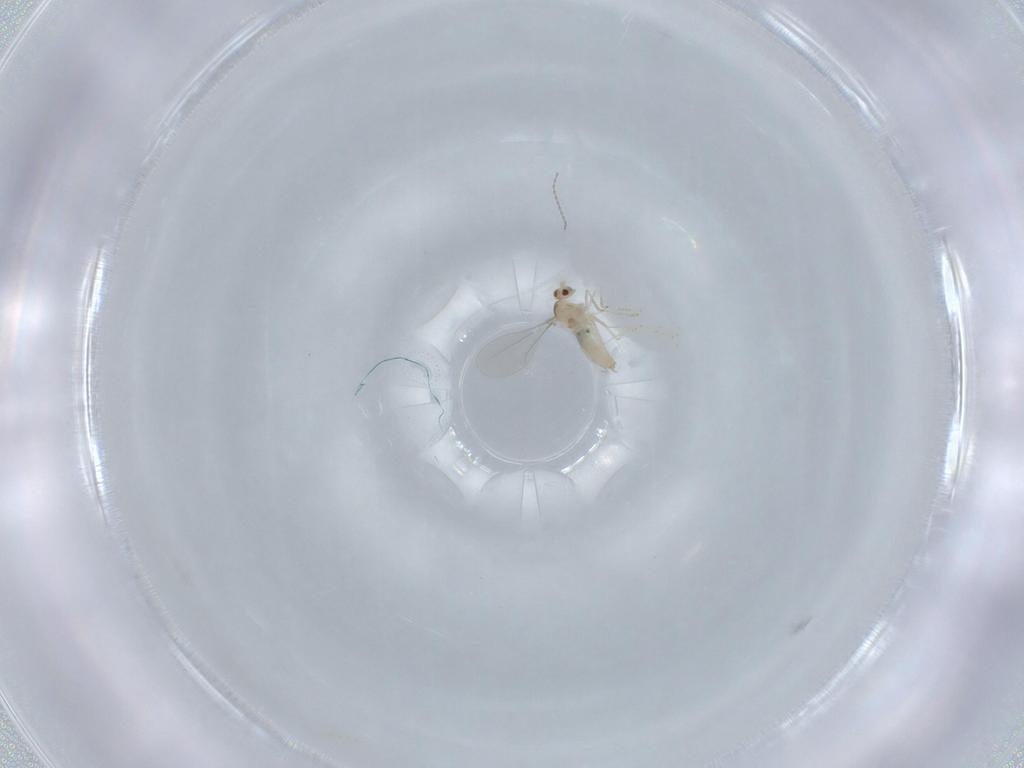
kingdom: Animalia
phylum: Arthropoda
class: Insecta
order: Diptera
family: Cecidomyiidae
